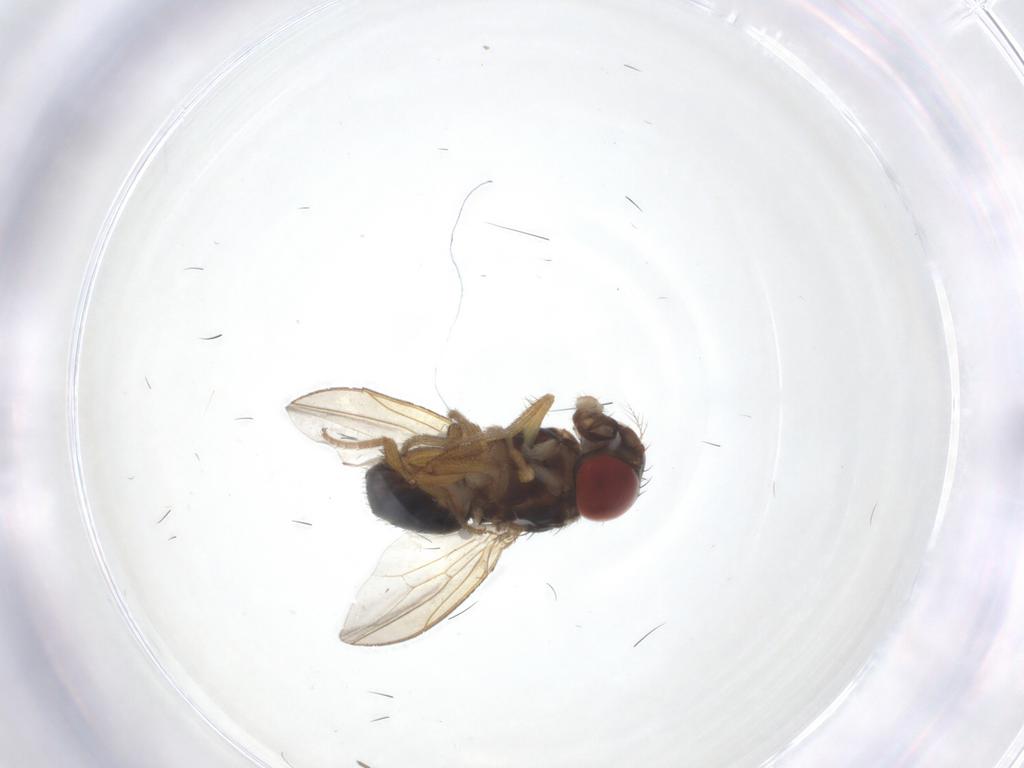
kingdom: Animalia
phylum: Arthropoda
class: Insecta
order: Diptera
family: Drosophilidae
